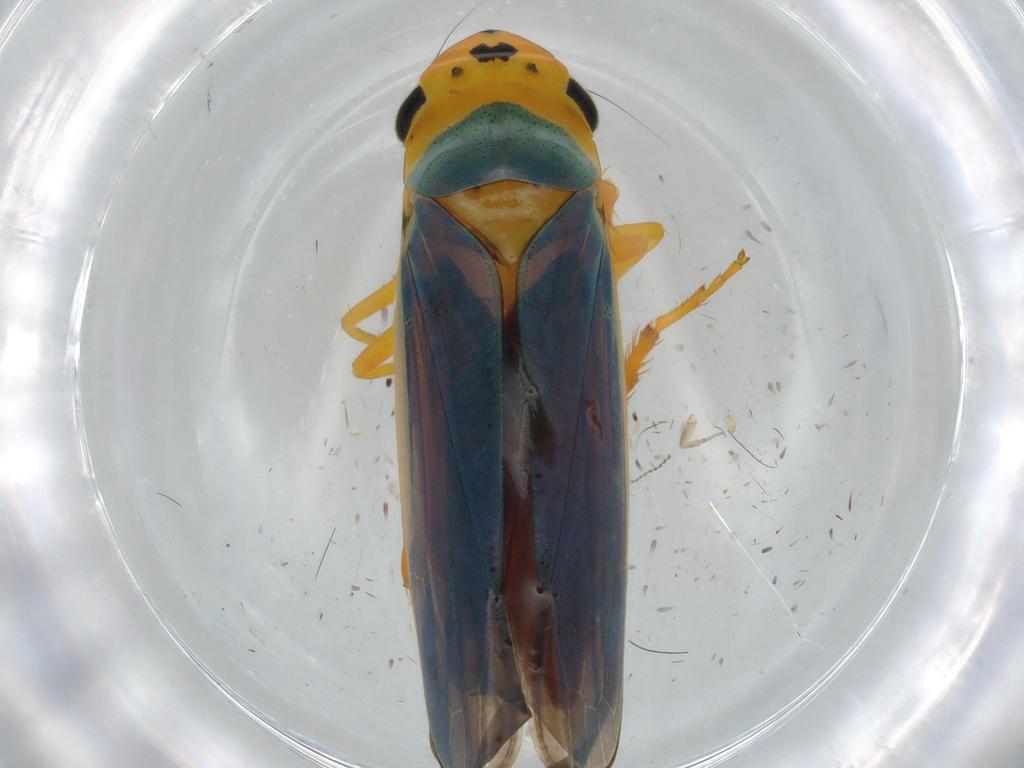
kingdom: Animalia
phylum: Arthropoda
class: Insecta
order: Hemiptera
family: Cicadellidae
